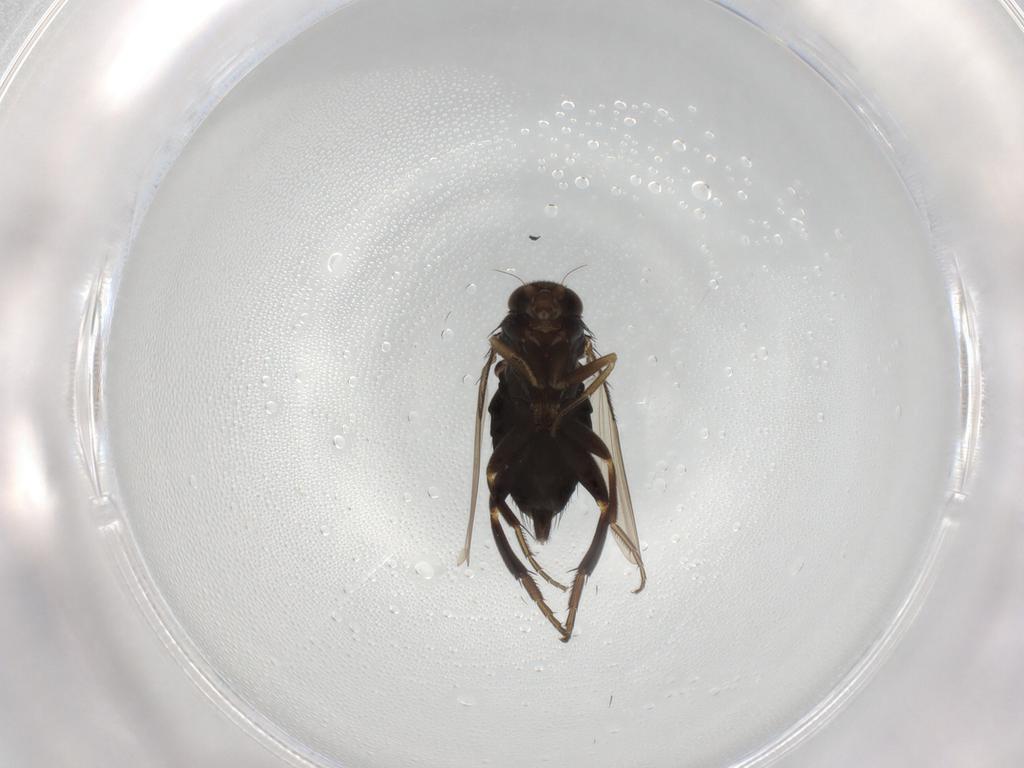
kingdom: Animalia
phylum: Arthropoda
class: Insecta
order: Diptera
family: Phoridae
